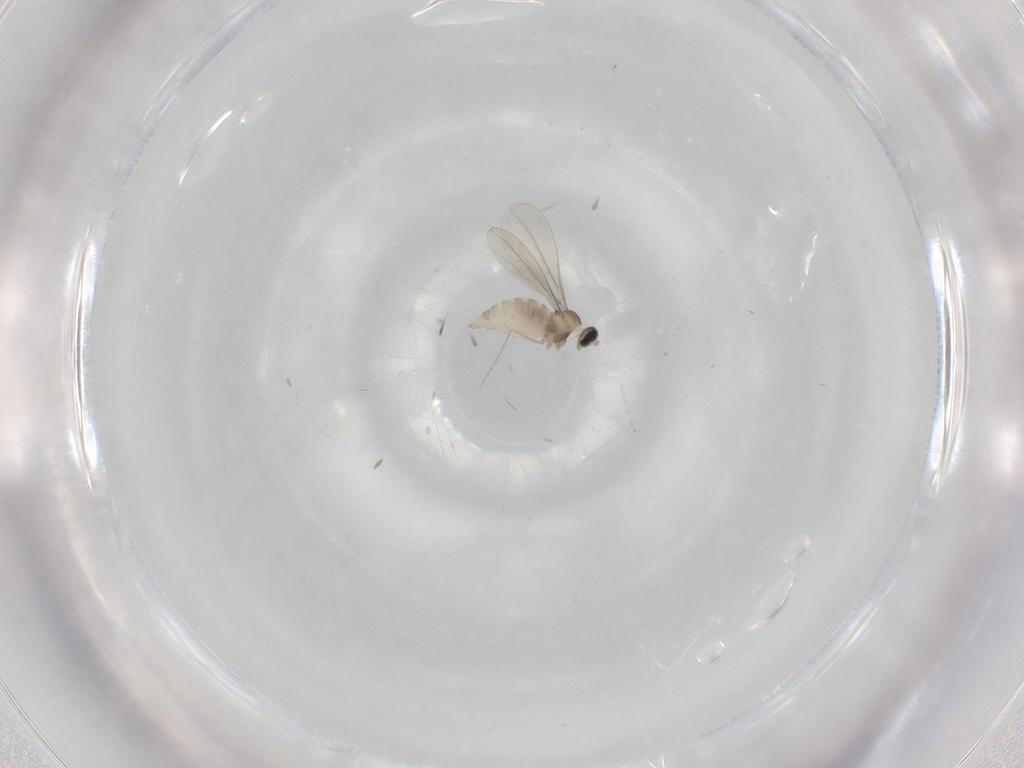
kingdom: Animalia
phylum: Arthropoda
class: Insecta
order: Diptera
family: Cecidomyiidae
